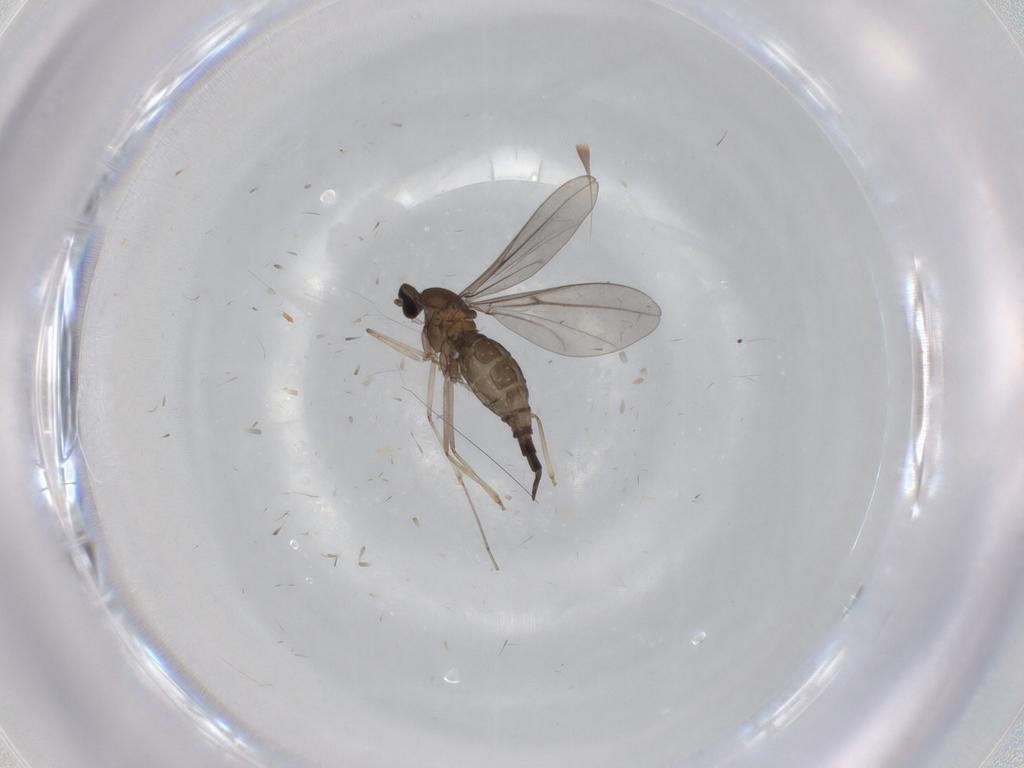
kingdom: Animalia
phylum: Arthropoda
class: Insecta
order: Diptera
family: Cecidomyiidae
